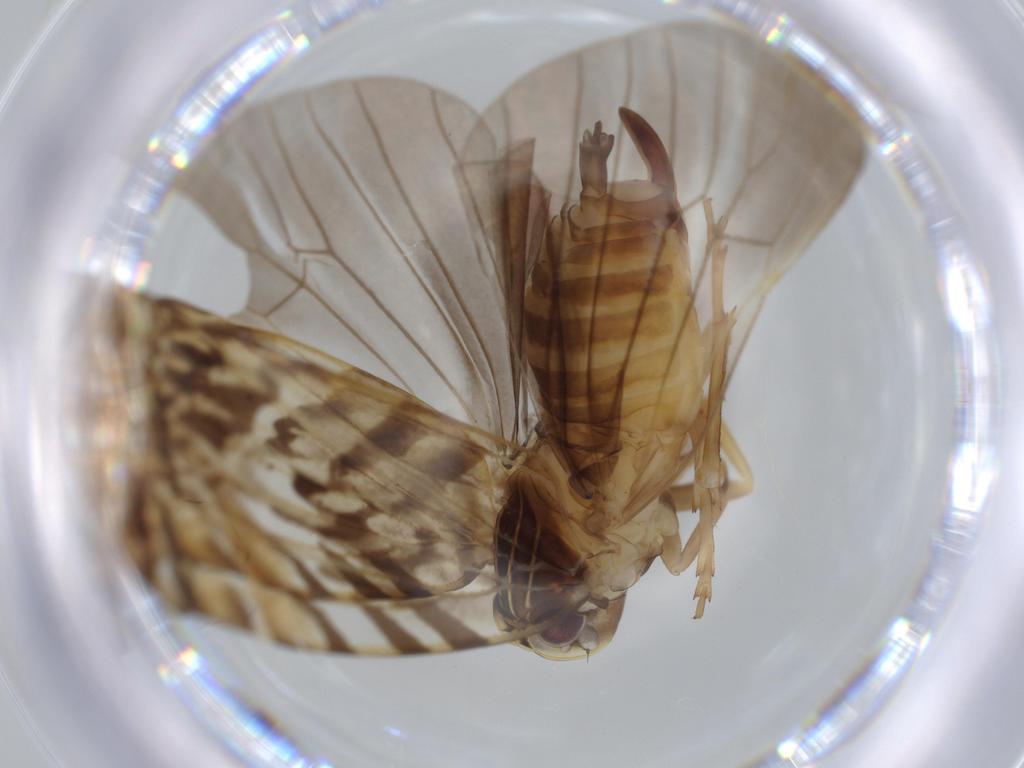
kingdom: Animalia
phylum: Arthropoda
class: Insecta
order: Hemiptera
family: Cixiidae
